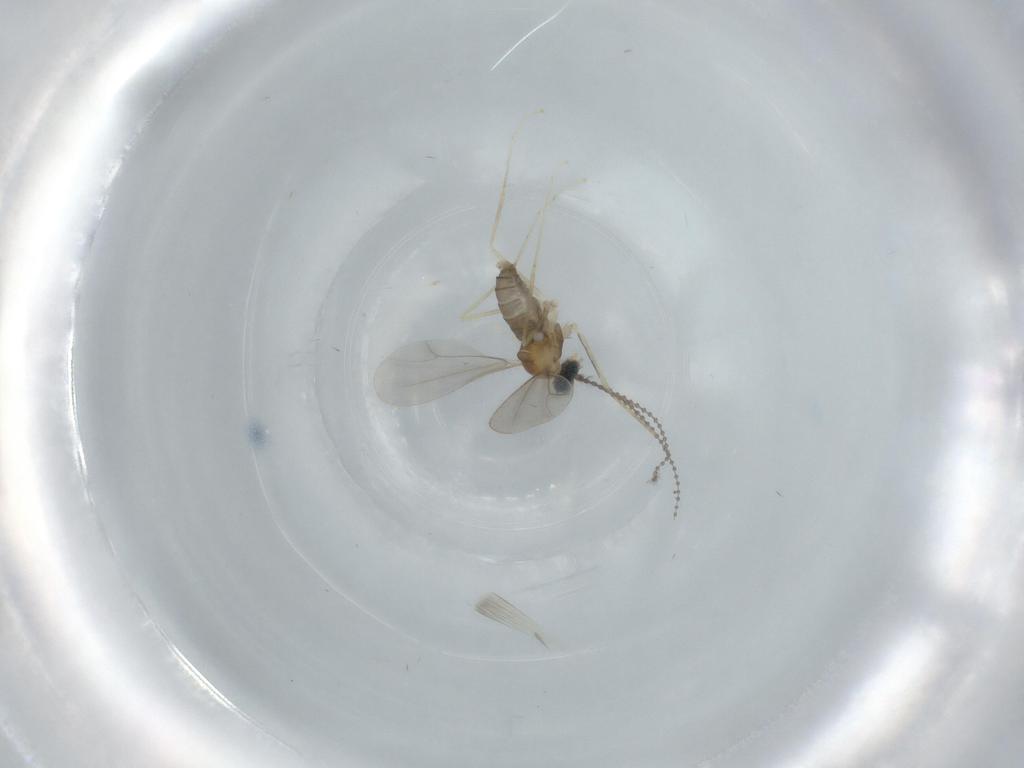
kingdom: Animalia
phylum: Arthropoda
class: Insecta
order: Diptera
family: Cecidomyiidae
